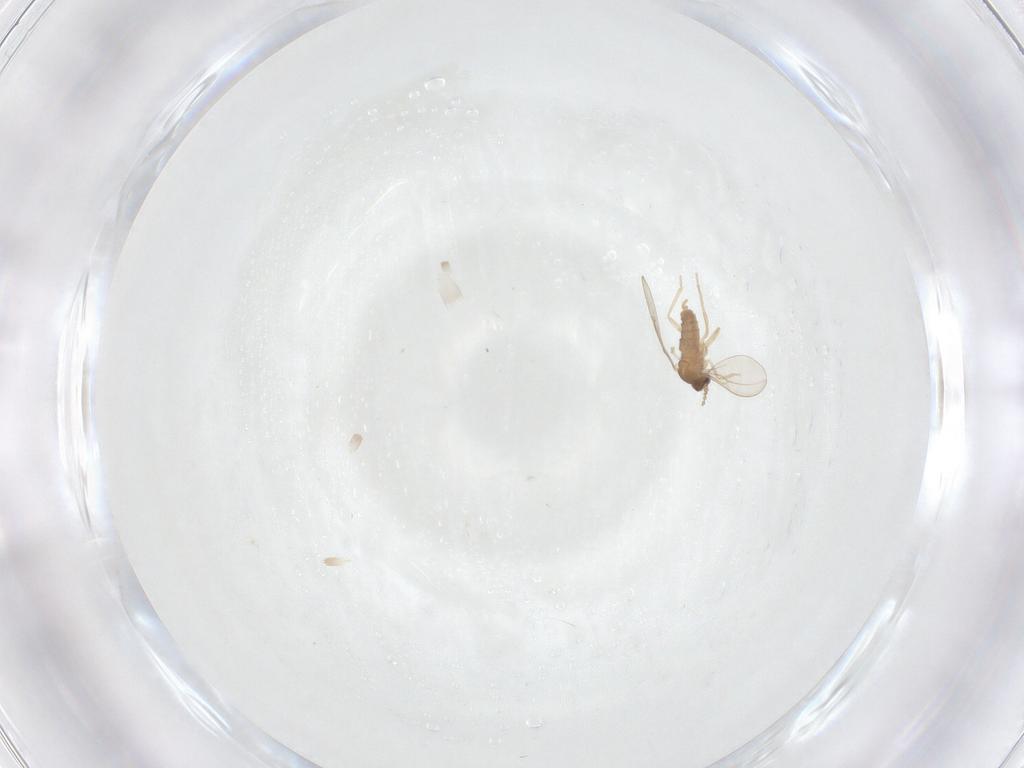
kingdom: Animalia
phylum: Arthropoda
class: Insecta
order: Diptera
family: Cecidomyiidae
